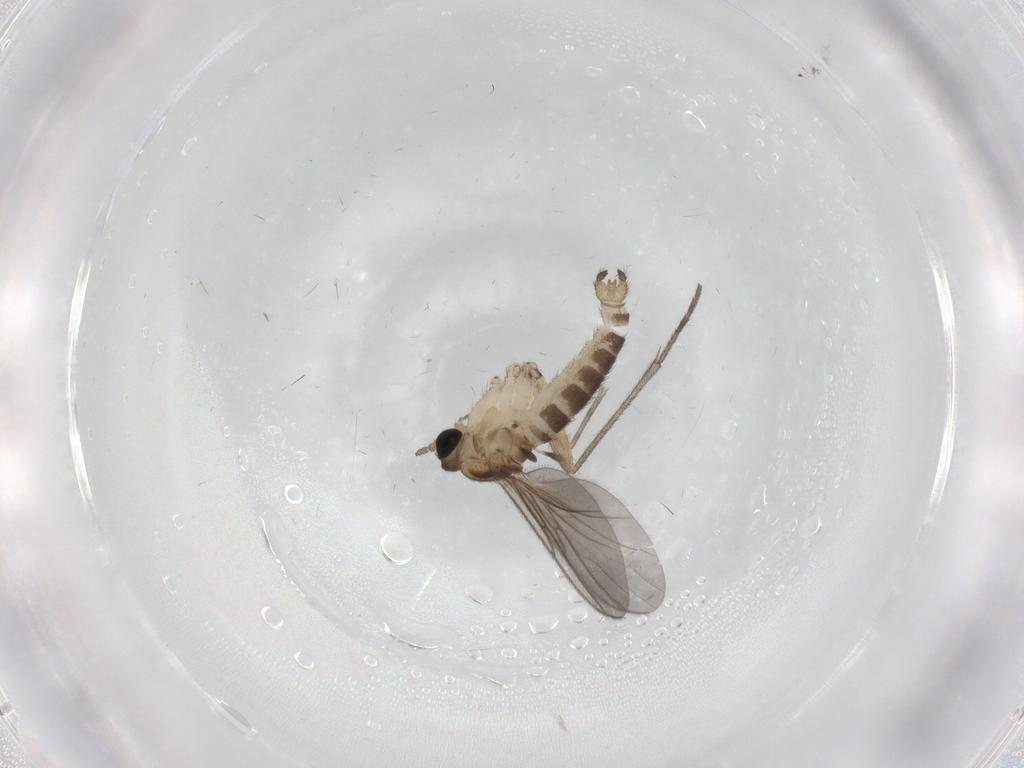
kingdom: Animalia
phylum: Arthropoda
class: Insecta
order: Diptera
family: Sciaridae
